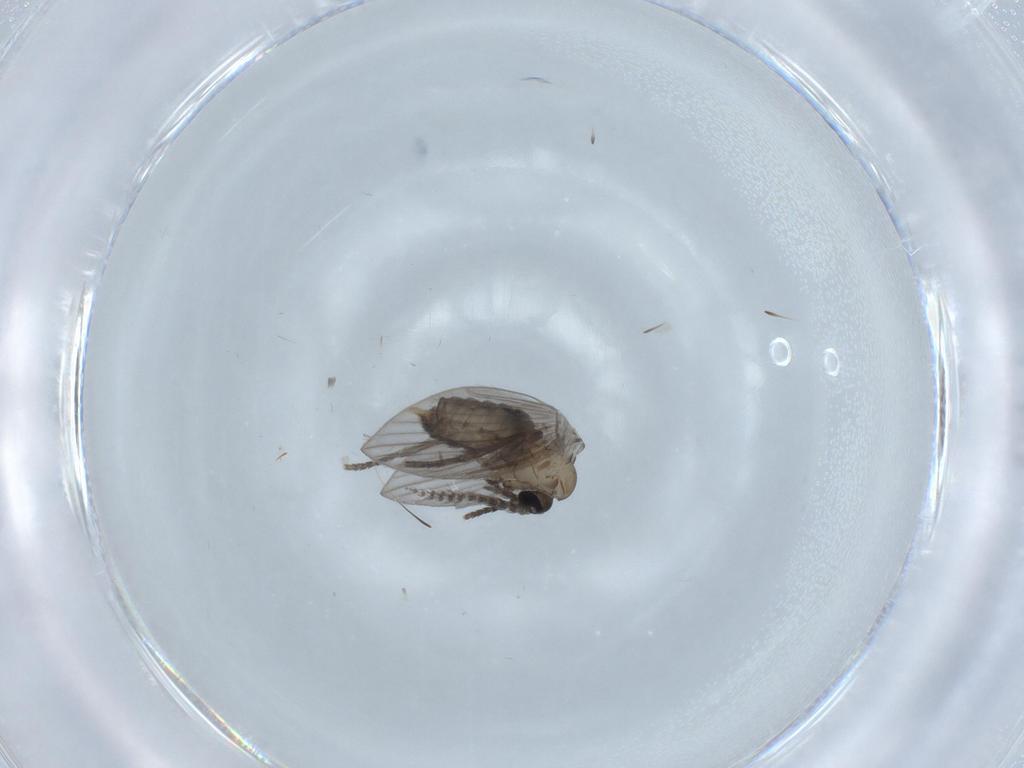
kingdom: Animalia
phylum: Arthropoda
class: Insecta
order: Diptera
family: Psychodidae
